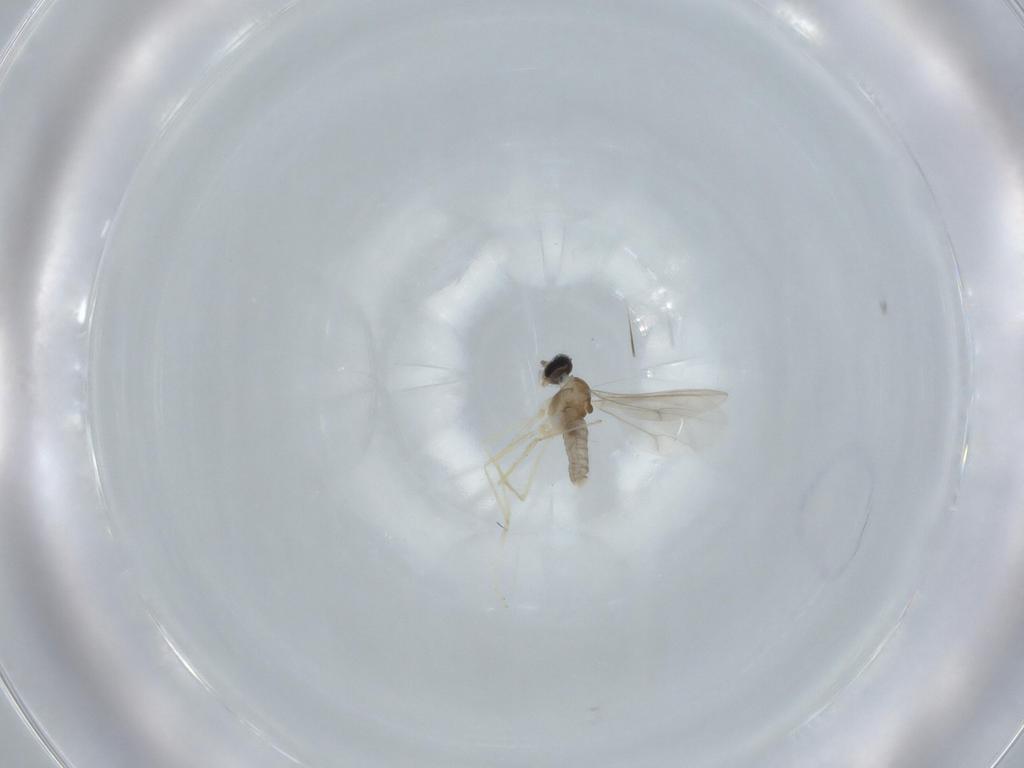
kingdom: Animalia
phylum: Arthropoda
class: Insecta
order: Diptera
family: Cecidomyiidae
